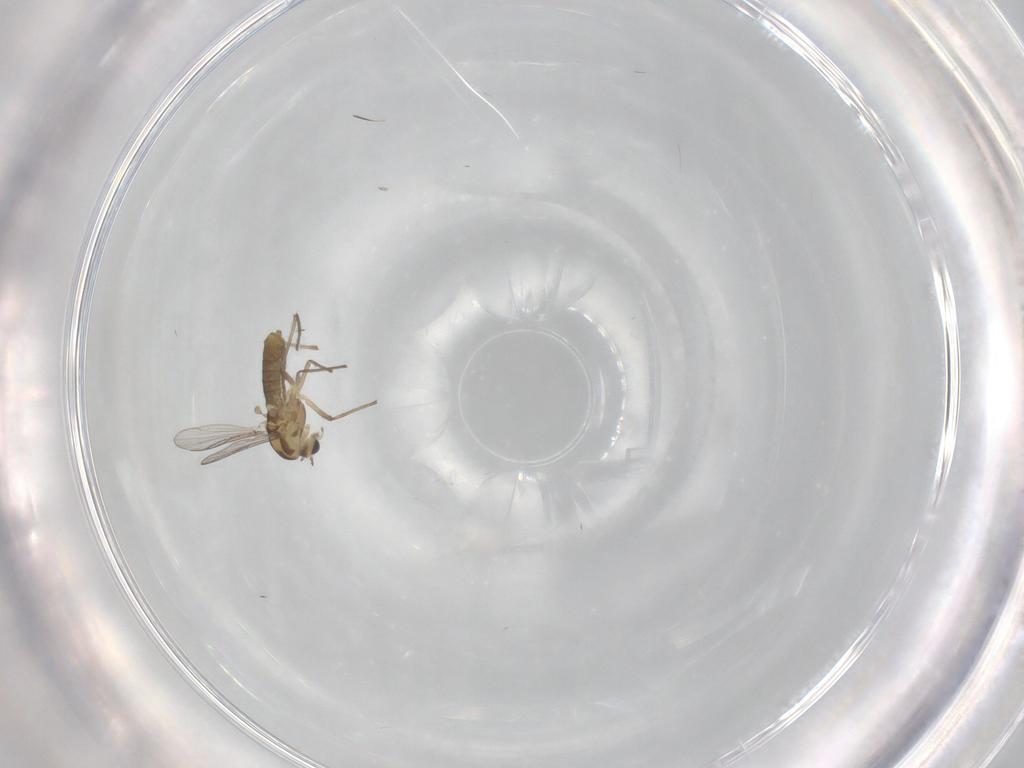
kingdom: Animalia
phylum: Arthropoda
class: Insecta
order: Diptera
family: Chironomidae
